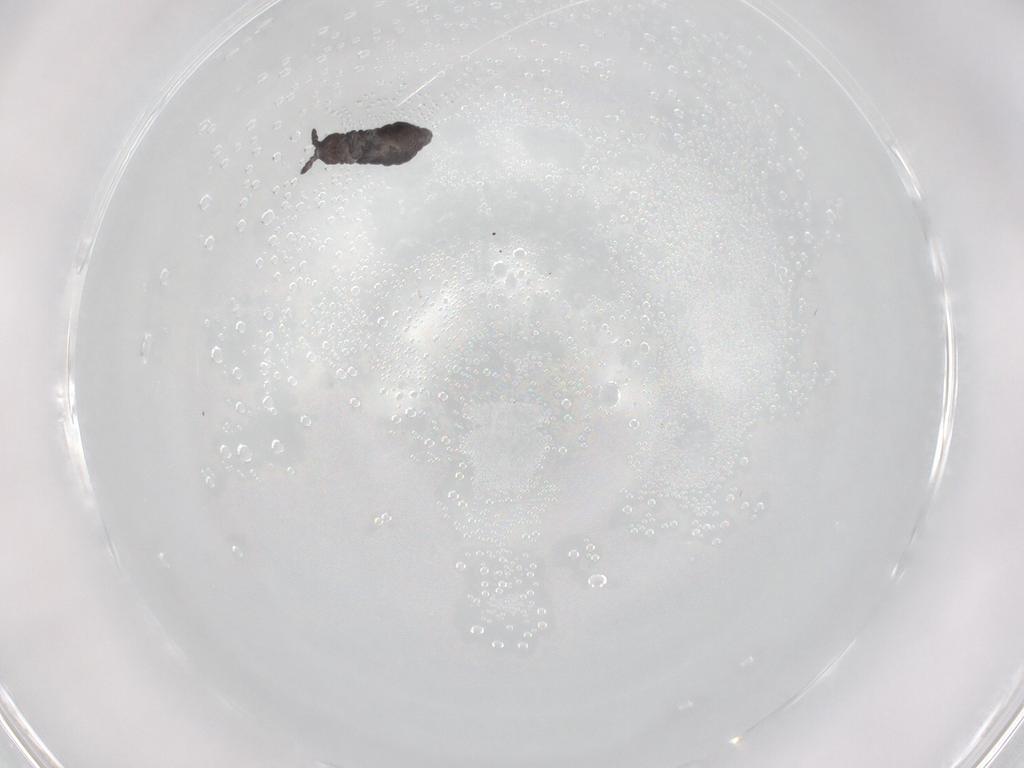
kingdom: Animalia
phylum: Arthropoda
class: Collembola
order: Poduromorpha
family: Hypogastruridae
